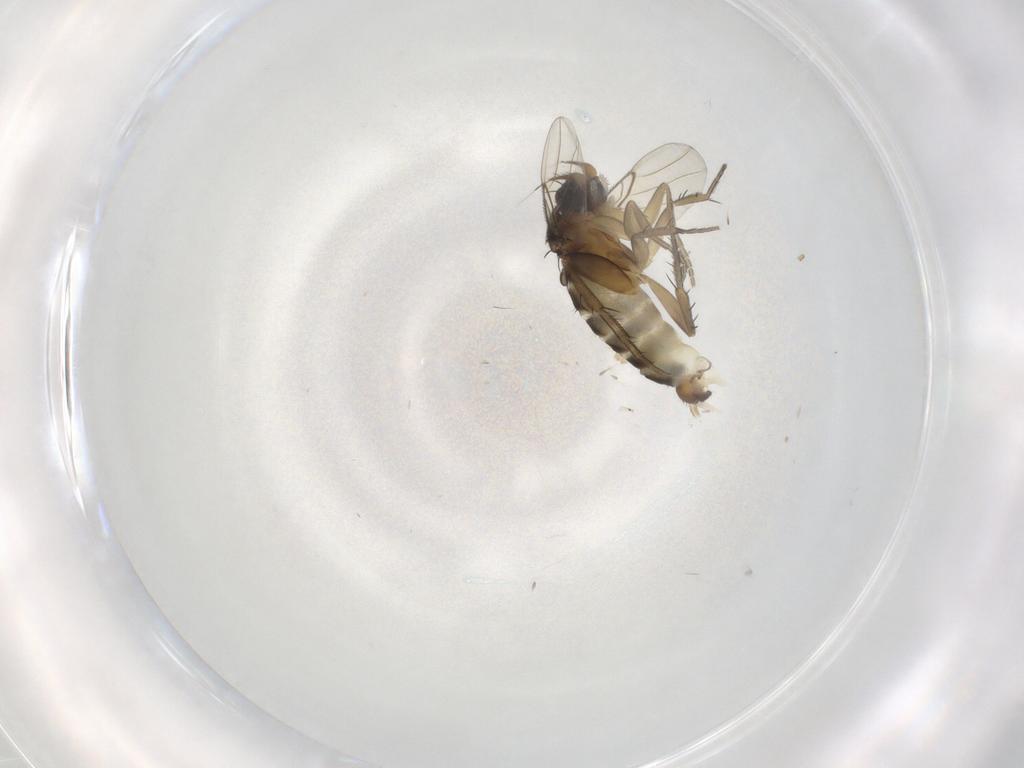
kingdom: Animalia
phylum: Arthropoda
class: Insecta
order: Diptera
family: Phoridae
